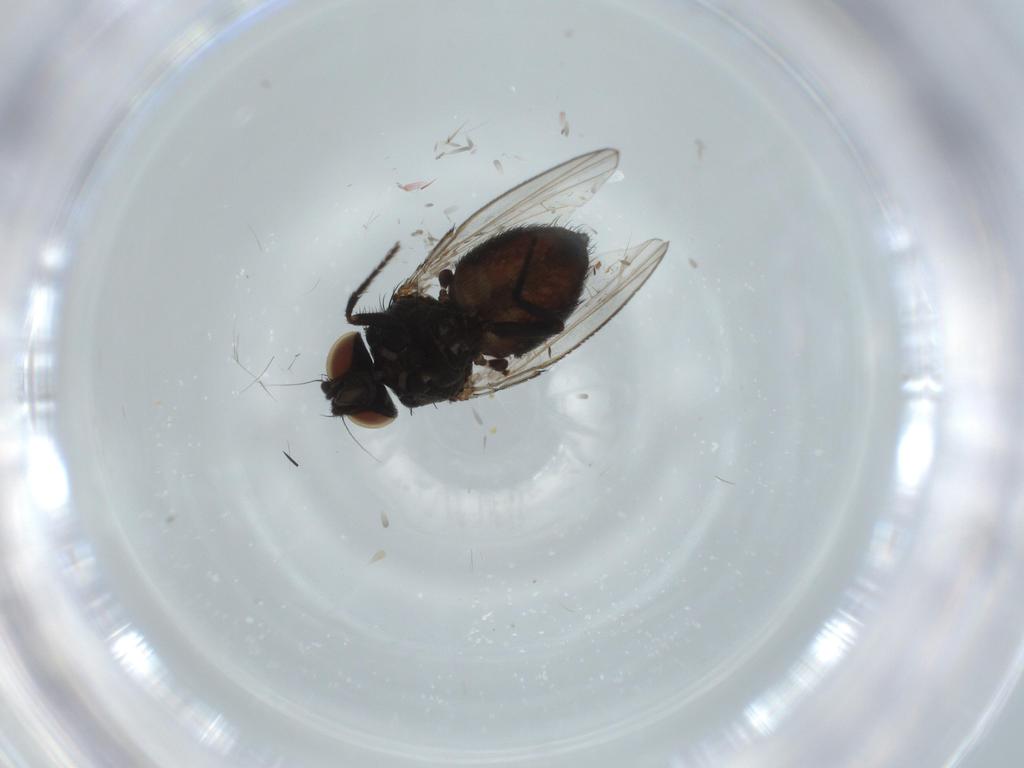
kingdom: Animalia
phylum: Arthropoda
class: Insecta
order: Diptera
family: Milichiidae
